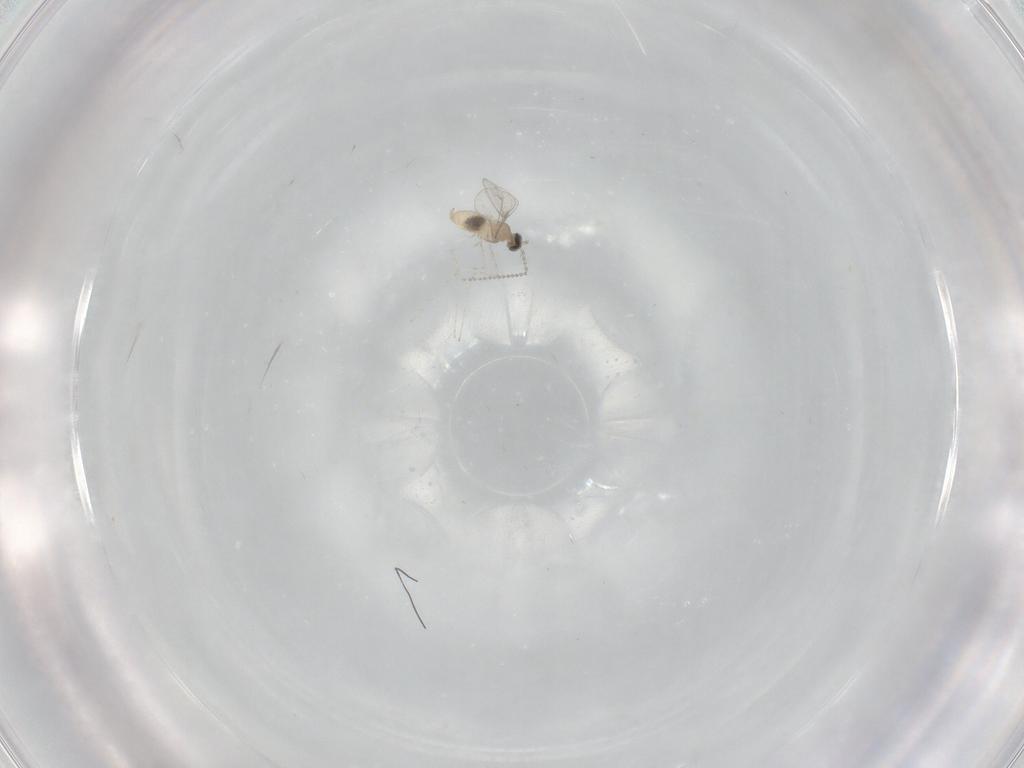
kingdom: Animalia
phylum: Arthropoda
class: Insecta
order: Diptera
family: Cecidomyiidae
